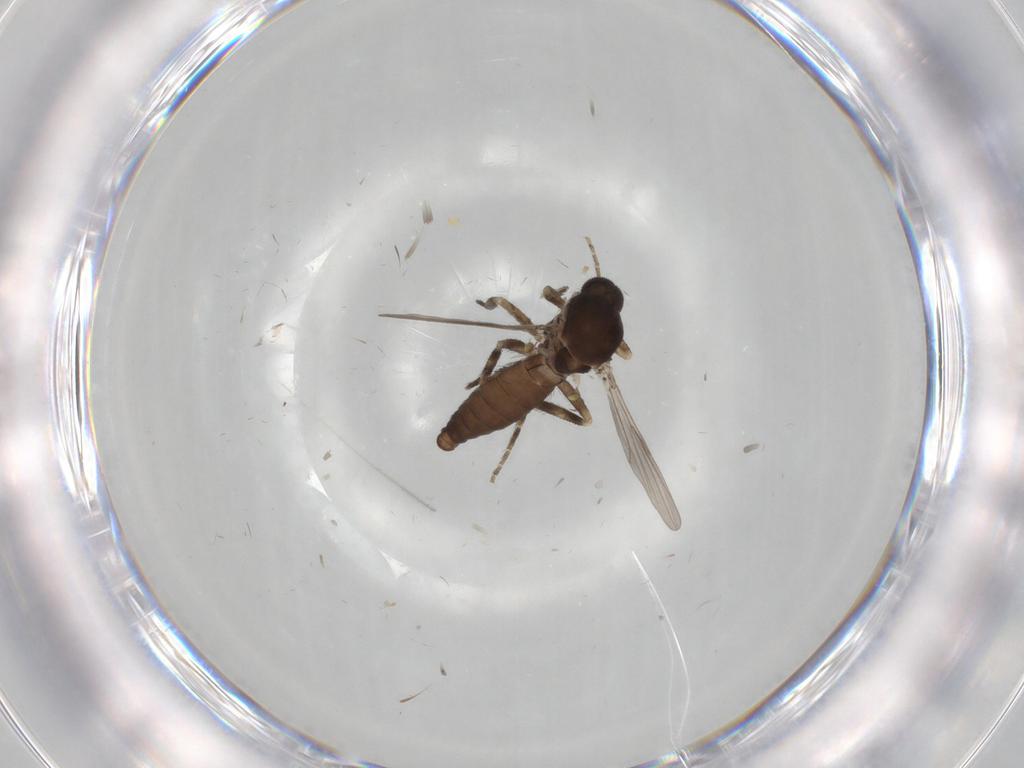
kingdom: Animalia
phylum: Arthropoda
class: Insecta
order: Diptera
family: Ceratopogonidae
